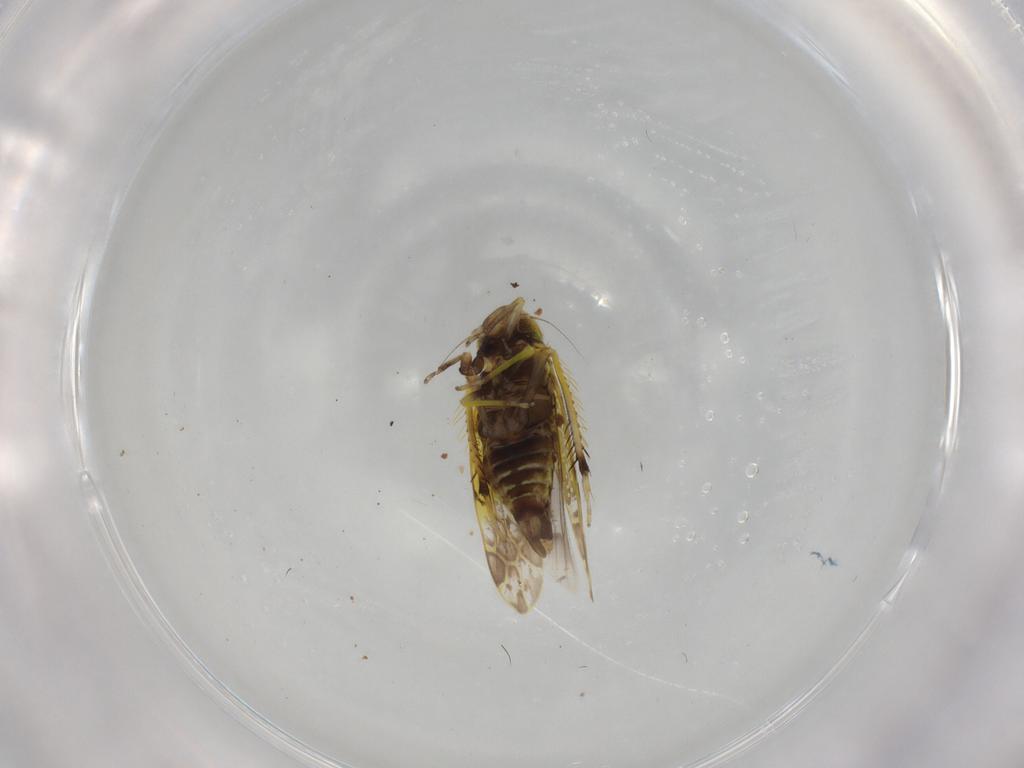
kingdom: Animalia
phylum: Arthropoda
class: Insecta
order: Hemiptera
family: Cicadellidae
